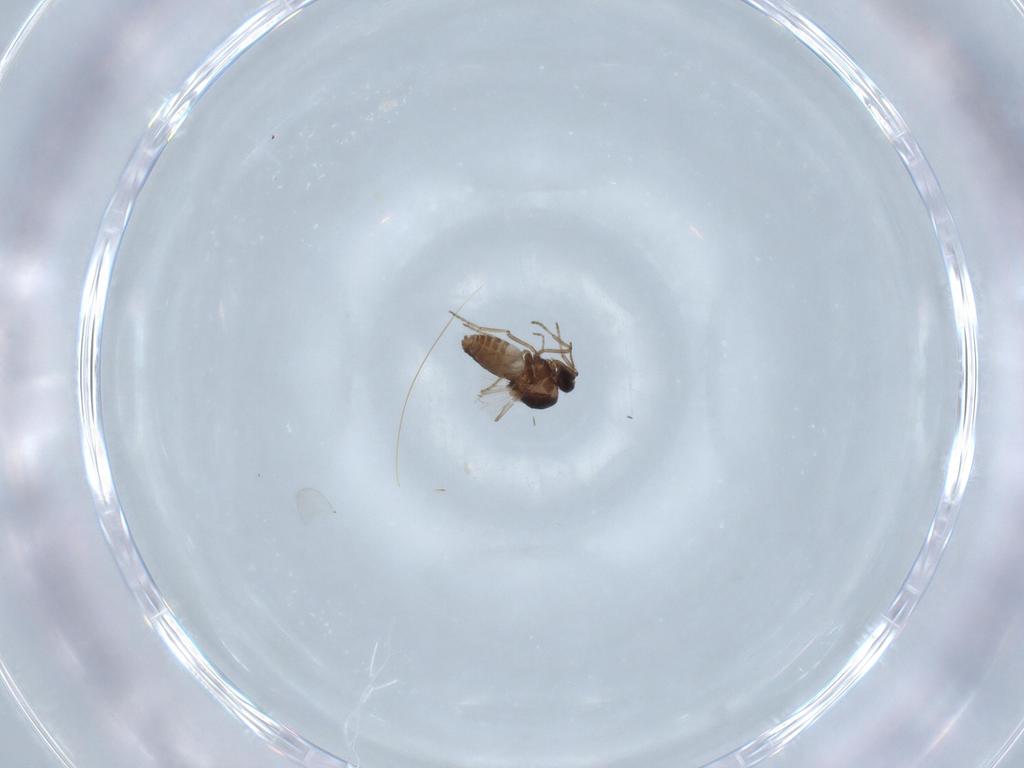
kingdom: Animalia
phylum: Arthropoda
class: Insecta
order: Diptera
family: Ceratopogonidae
